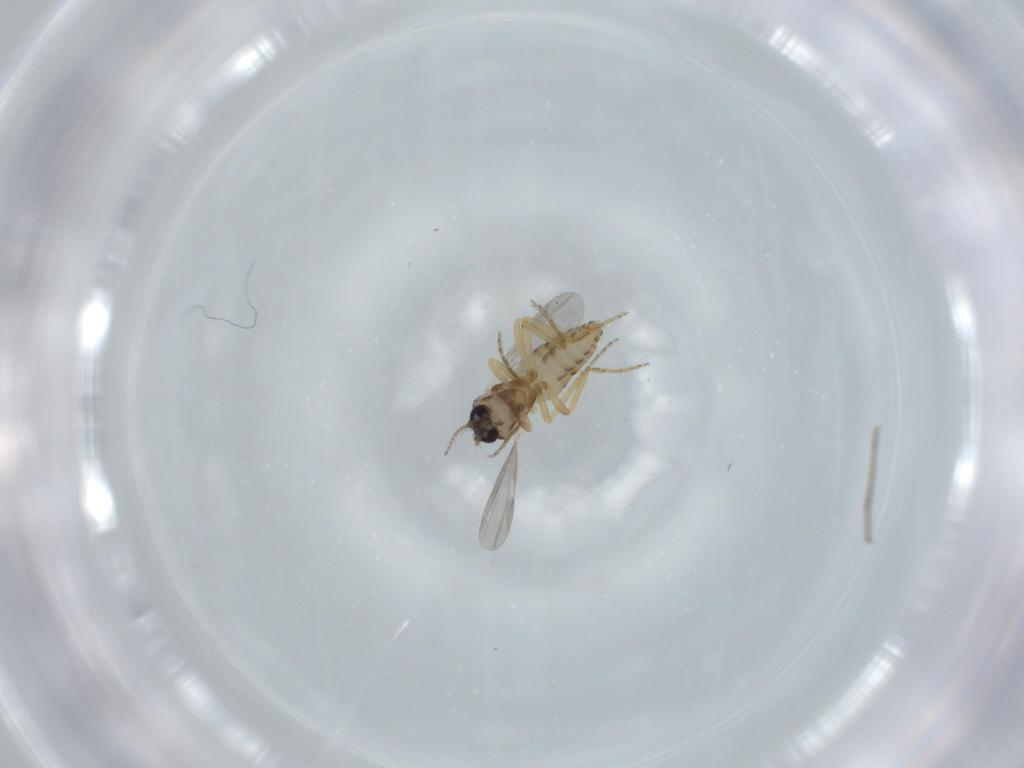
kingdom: Animalia
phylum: Arthropoda
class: Insecta
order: Diptera
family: Ceratopogonidae
